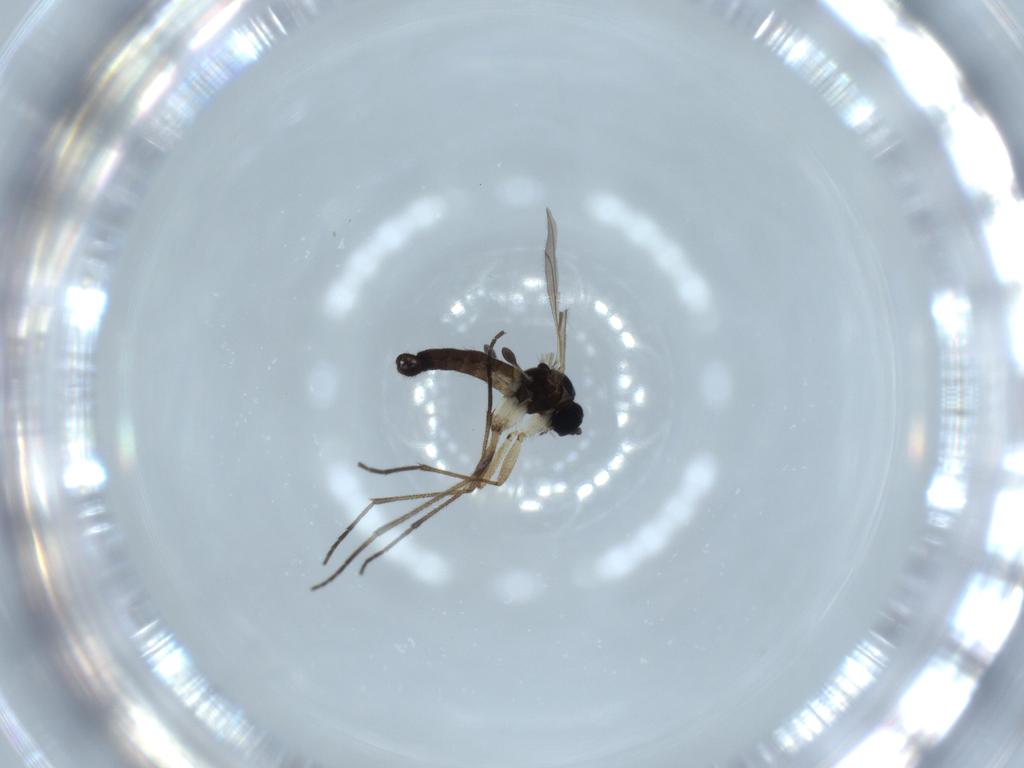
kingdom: Animalia
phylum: Arthropoda
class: Insecta
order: Diptera
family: Sciaridae
